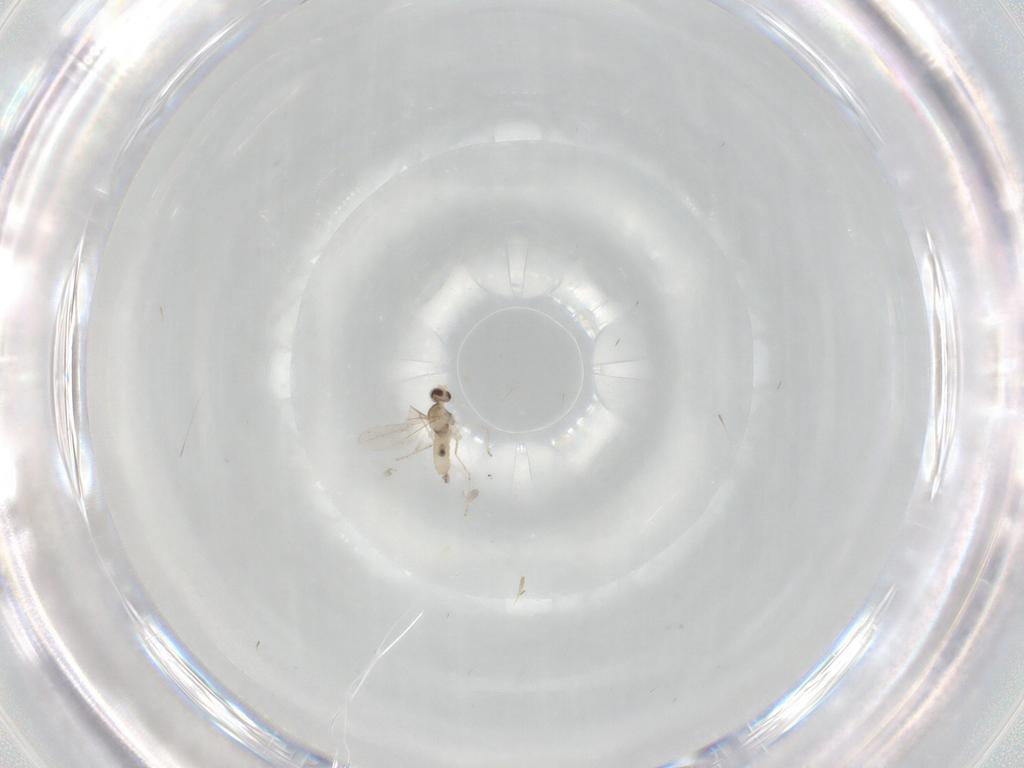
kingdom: Animalia
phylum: Arthropoda
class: Insecta
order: Diptera
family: Cecidomyiidae
